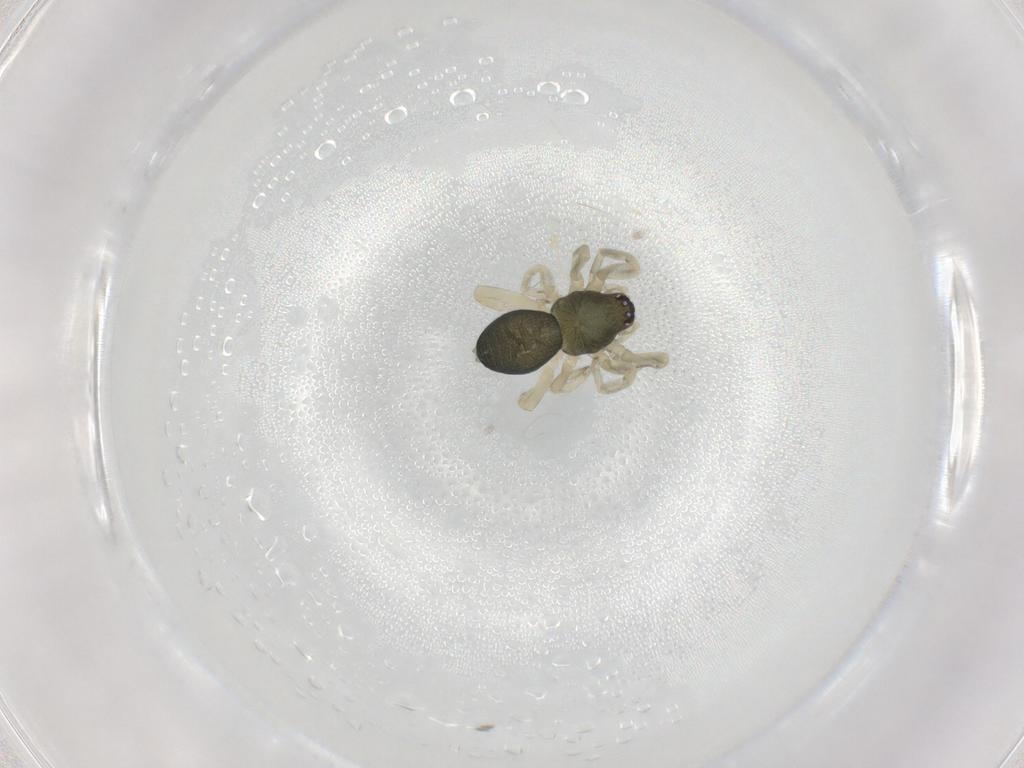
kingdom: Animalia
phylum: Arthropoda
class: Arachnida
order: Araneae
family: Trachelidae
